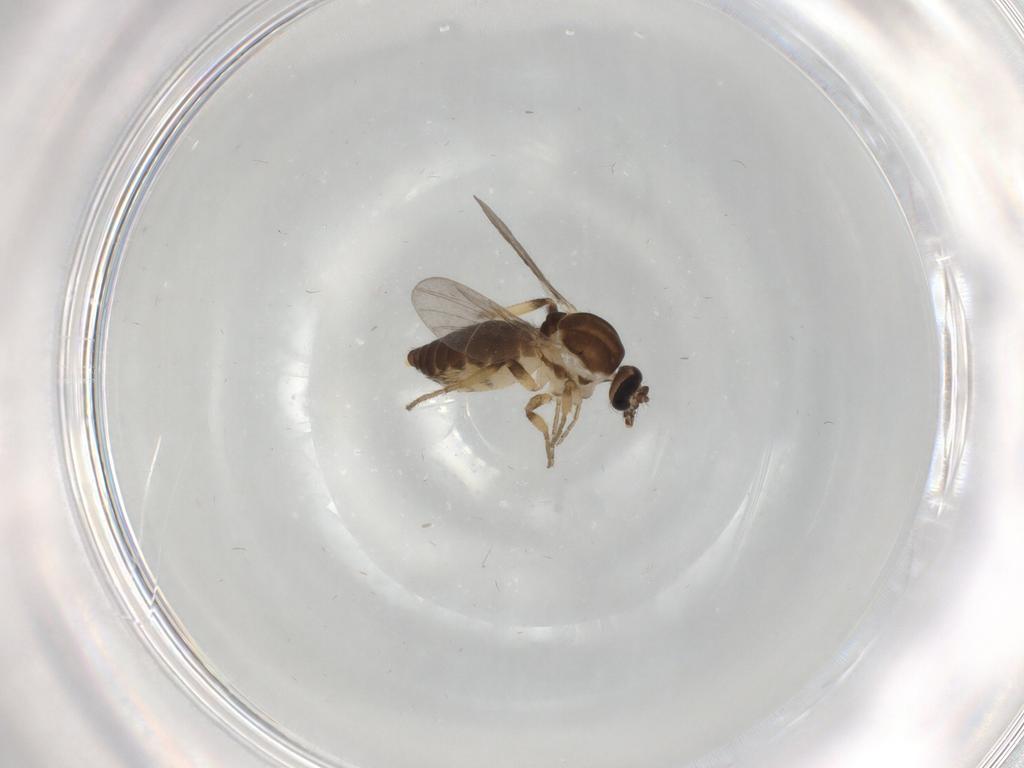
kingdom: Animalia
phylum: Arthropoda
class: Insecta
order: Diptera
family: Ceratopogonidae
